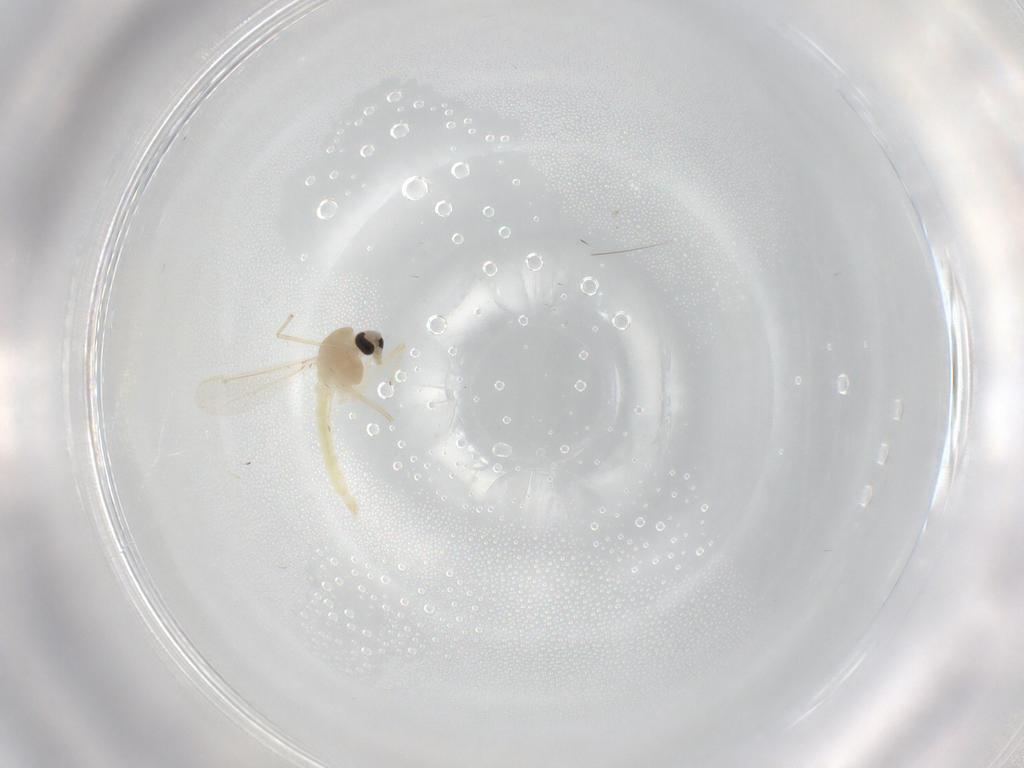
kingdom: Animalia
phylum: Arthropoda
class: Insecta
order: Diptera
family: Chironomidae
